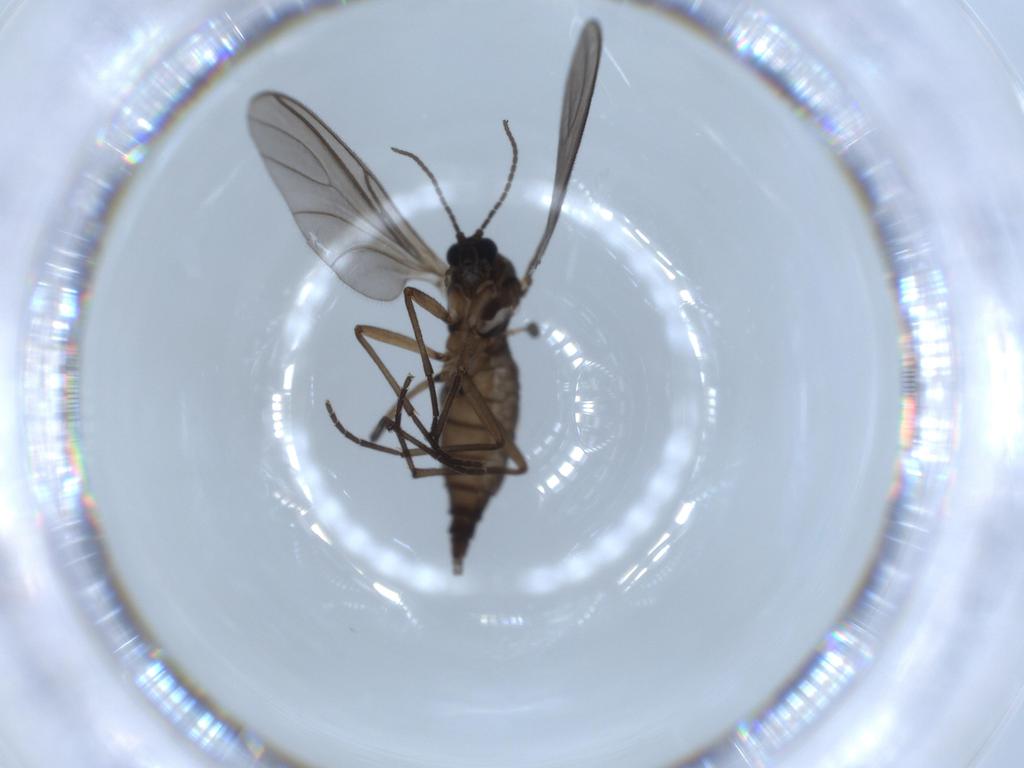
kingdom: Animalia
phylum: Arthropoda
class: Insecta
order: Diptera
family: Sciaridae
